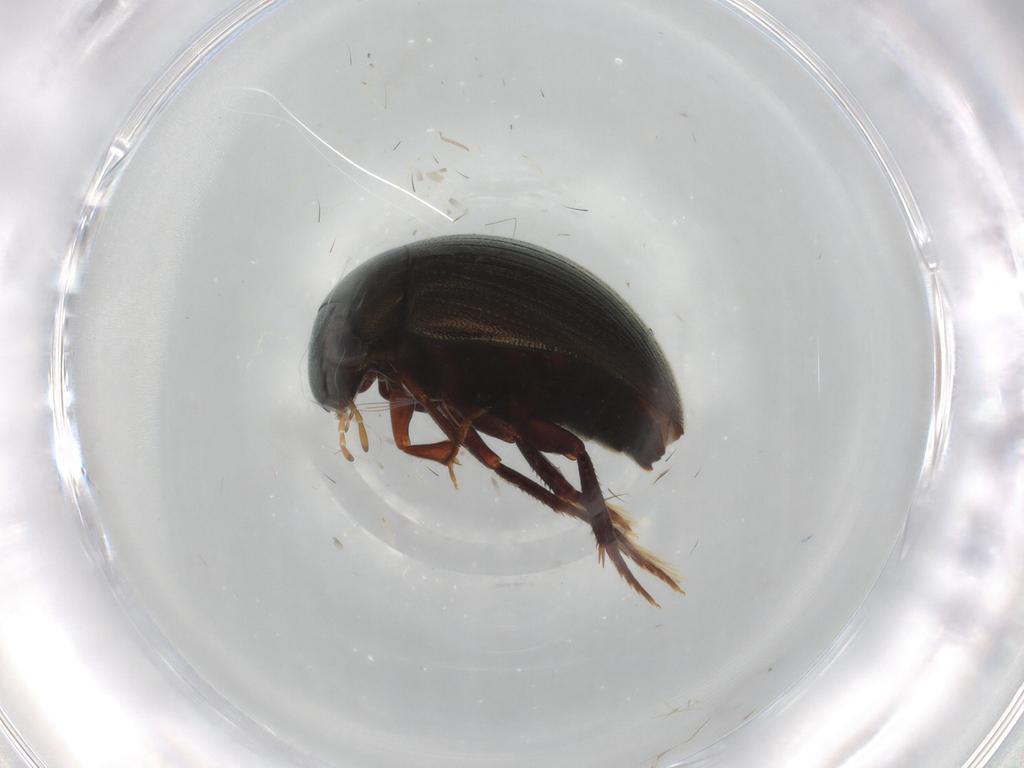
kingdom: Animalia
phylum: Arthropoda
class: Insecta
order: Coleoptera
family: Hydrophilidae
